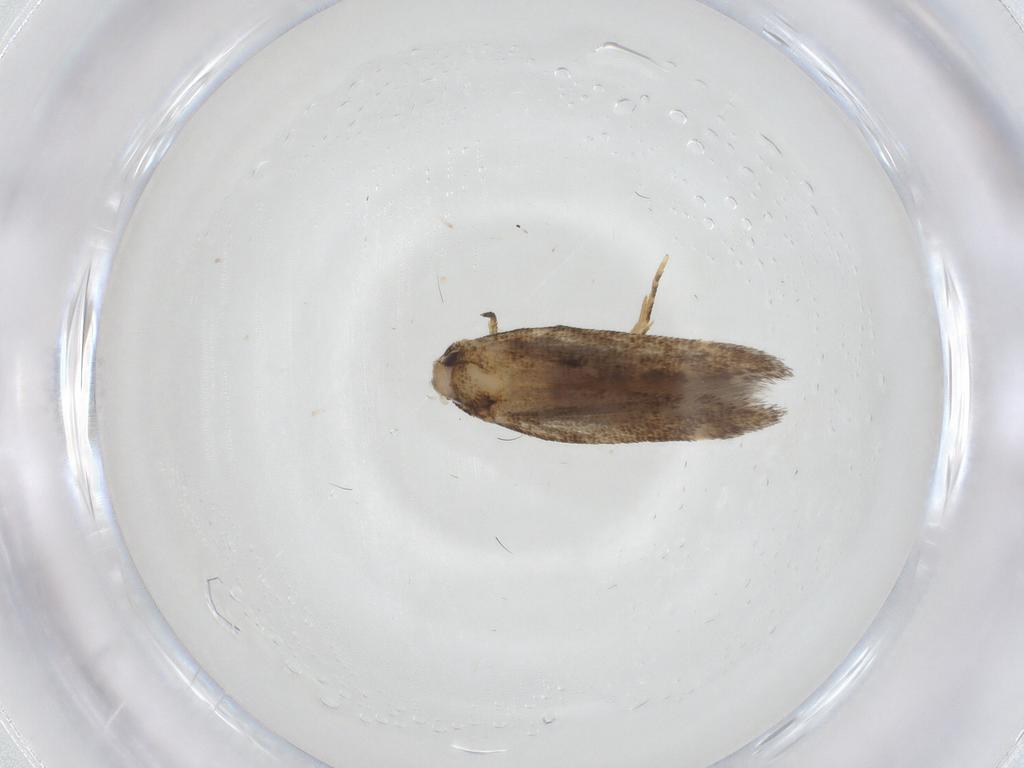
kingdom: Animalia
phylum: Arthropoda
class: Insecta
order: Lepidoptera
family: Cosmopterigidae
